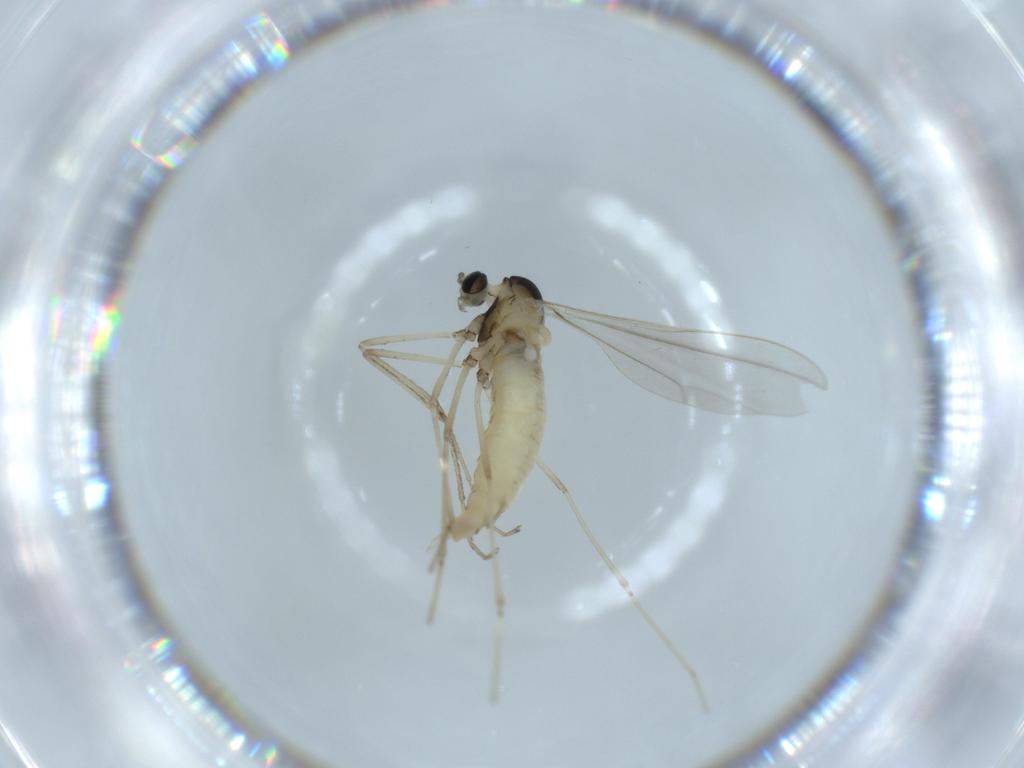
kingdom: Animalia
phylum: Arthropoda
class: Insecta
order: Diptera
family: Cecidomyiidae
